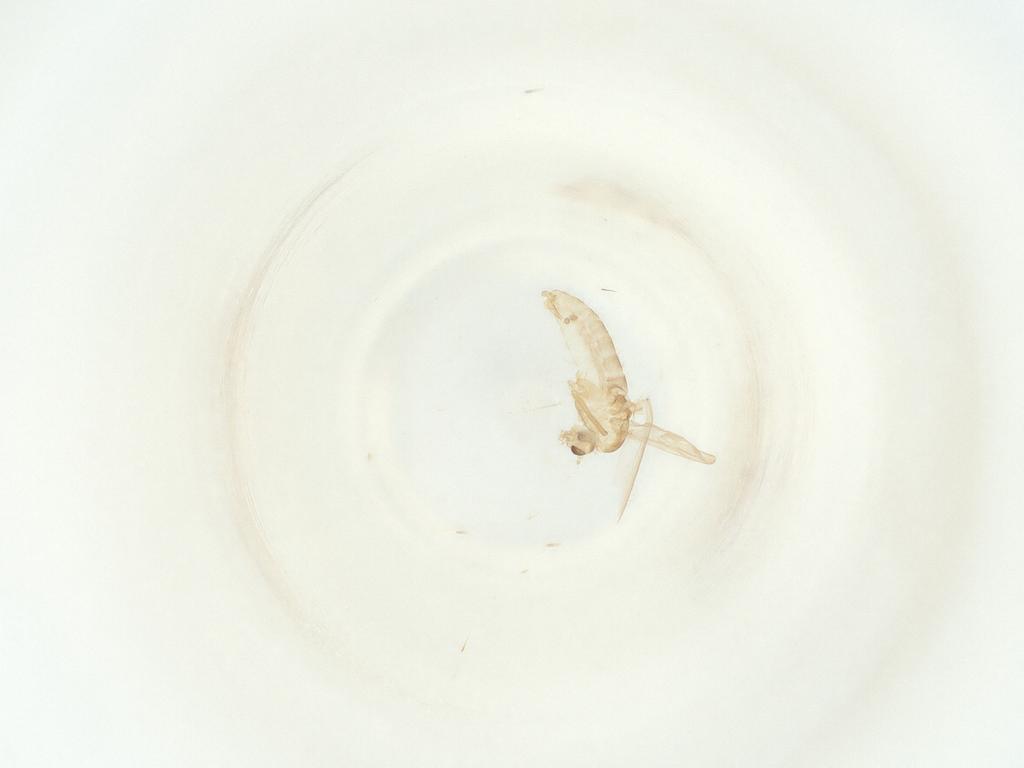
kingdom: Animalia
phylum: Arthropoda
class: Insecta
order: Diptera
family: Chironomidae
